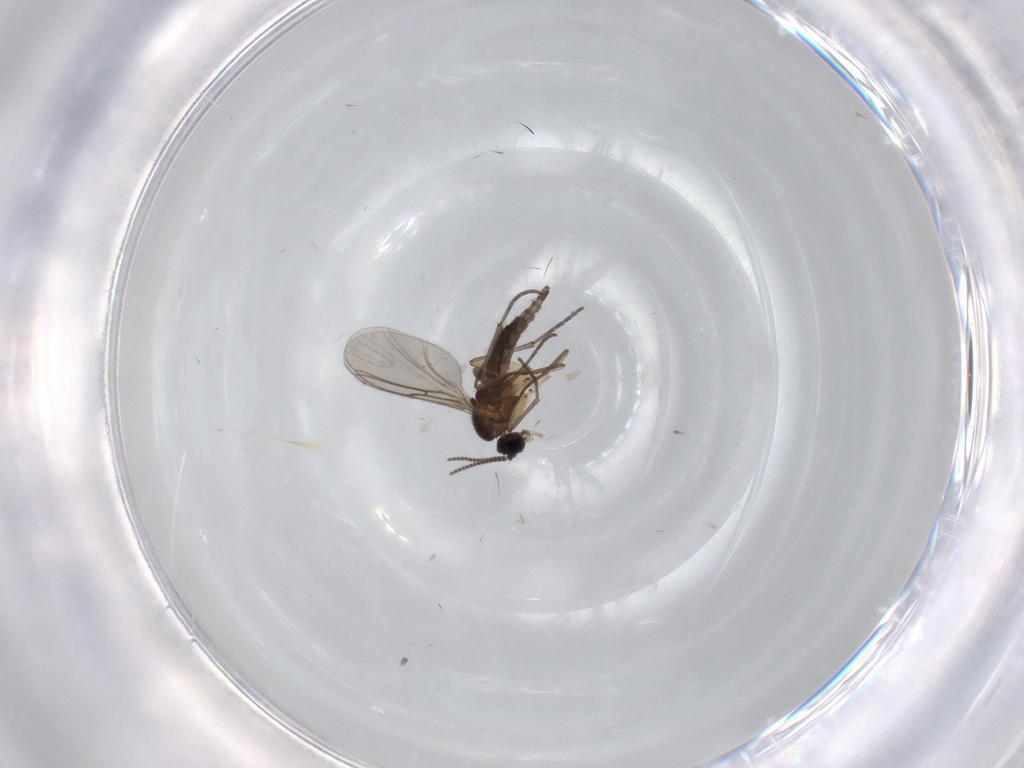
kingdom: Animalia
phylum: Arthropoda
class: Insecta
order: Diptera
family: Sciaridae
